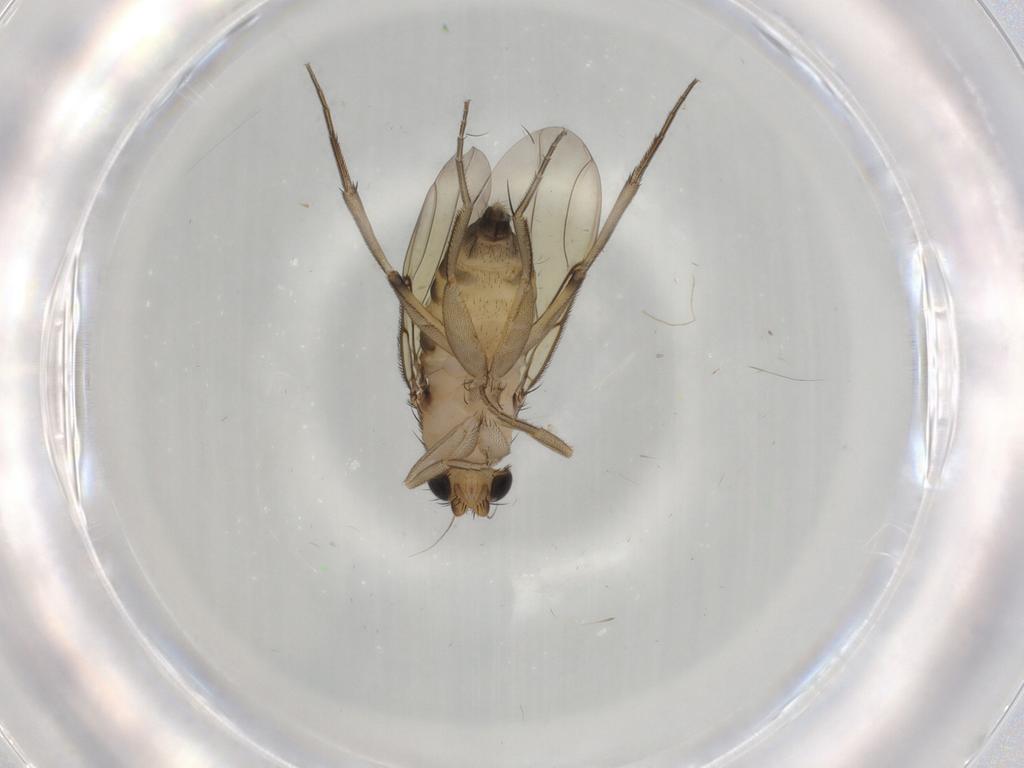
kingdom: Animalia
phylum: Arthropoda
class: Insecta
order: Diptera
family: Phoridae
